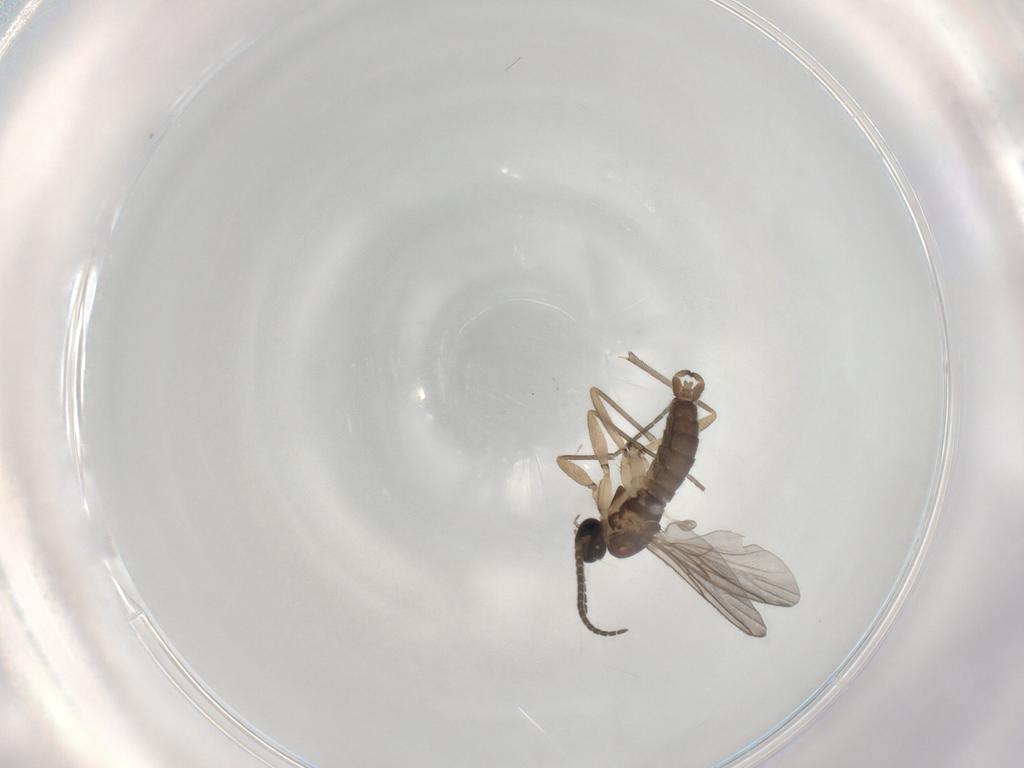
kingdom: Animalia
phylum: Arthropoda
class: Insecta
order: Diptera
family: Sciaridae
